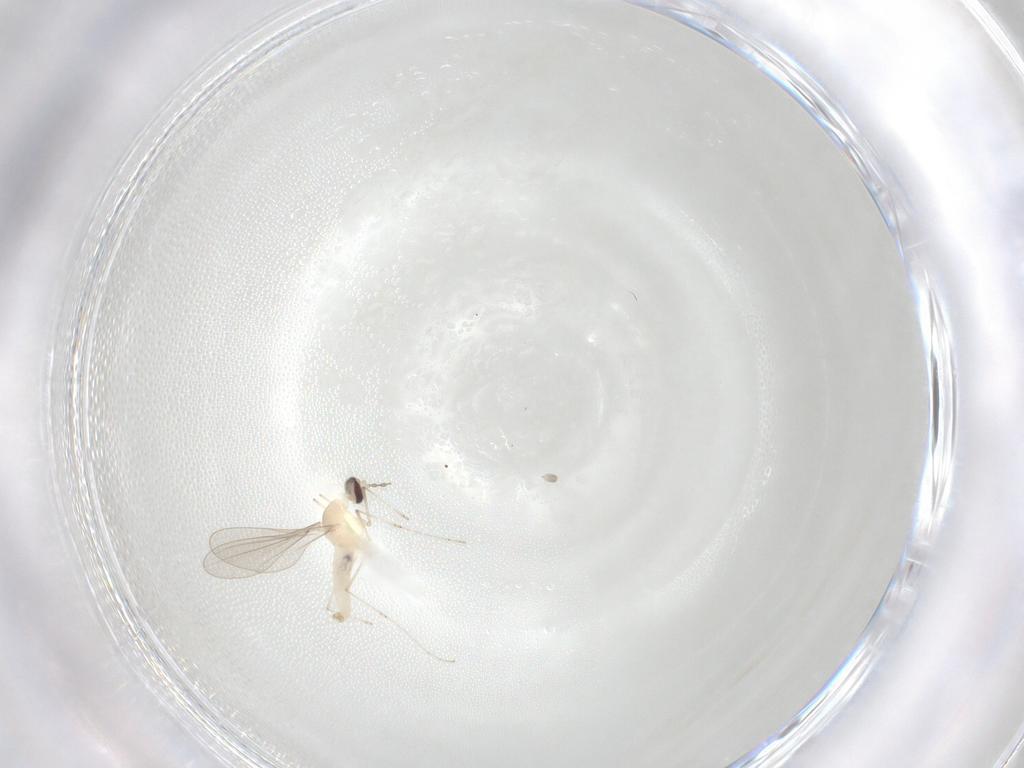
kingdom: Animalia
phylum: Arthropoda
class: Insecta
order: Diptera
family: Cecidomyiidae
